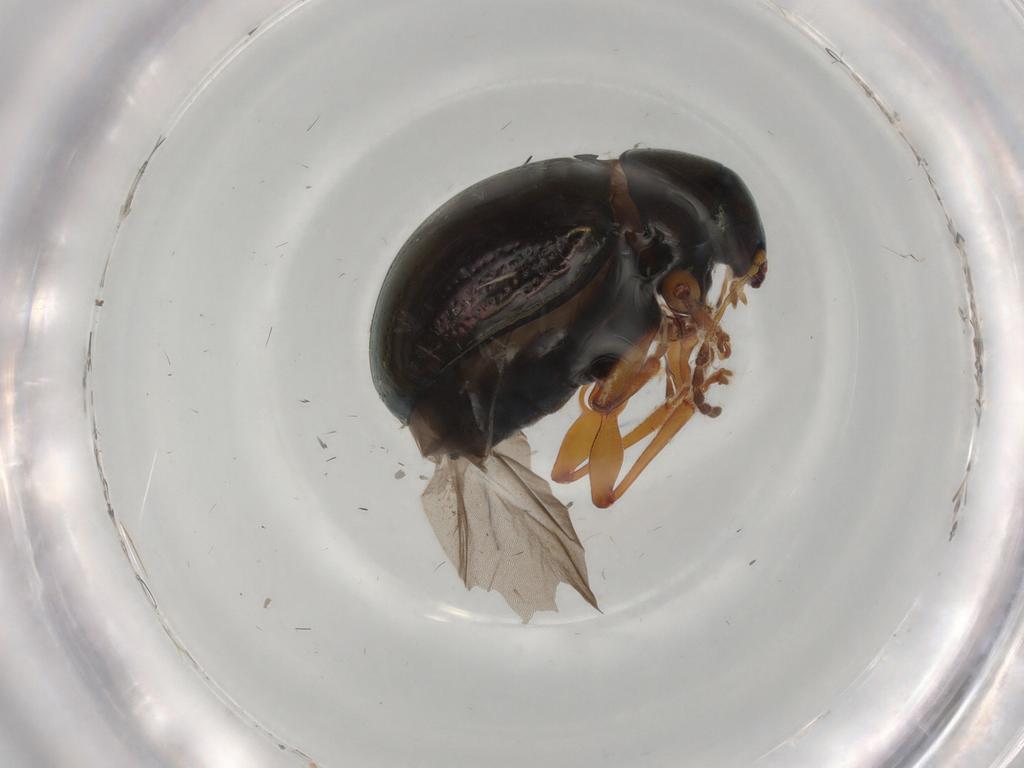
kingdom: Animalia
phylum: Arthropoda
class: Insecta
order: Coleoptera
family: Chrysomelidae
